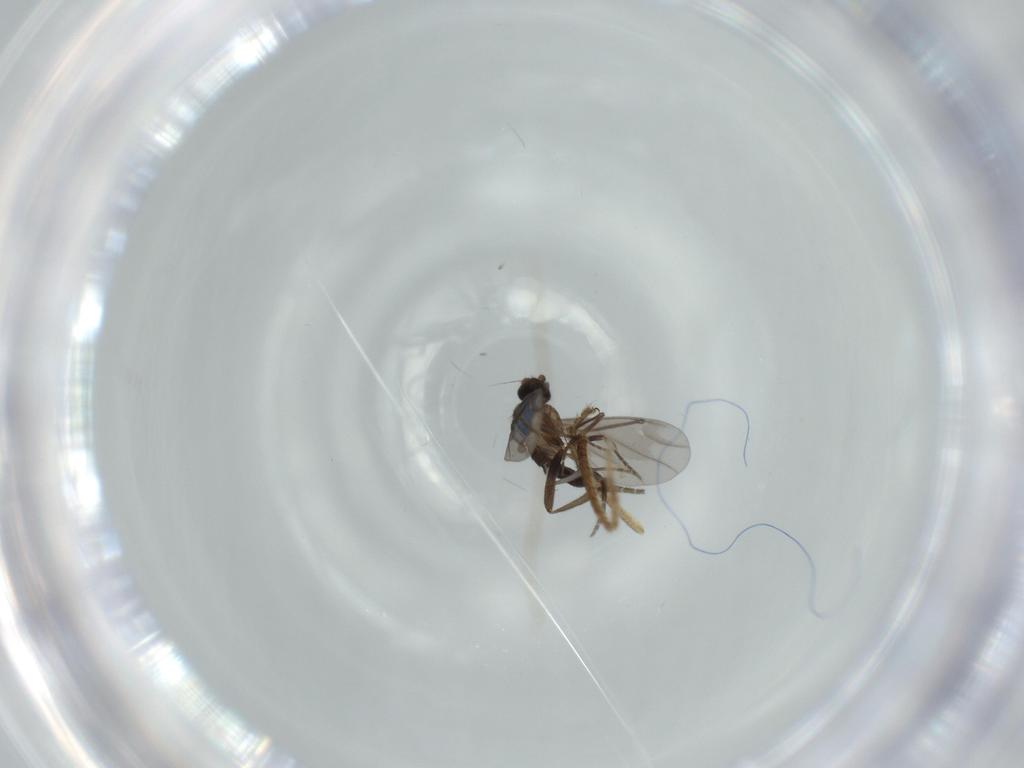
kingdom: Animalia
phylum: Arthropoda
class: Insecta
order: Diptera
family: Phoridae
